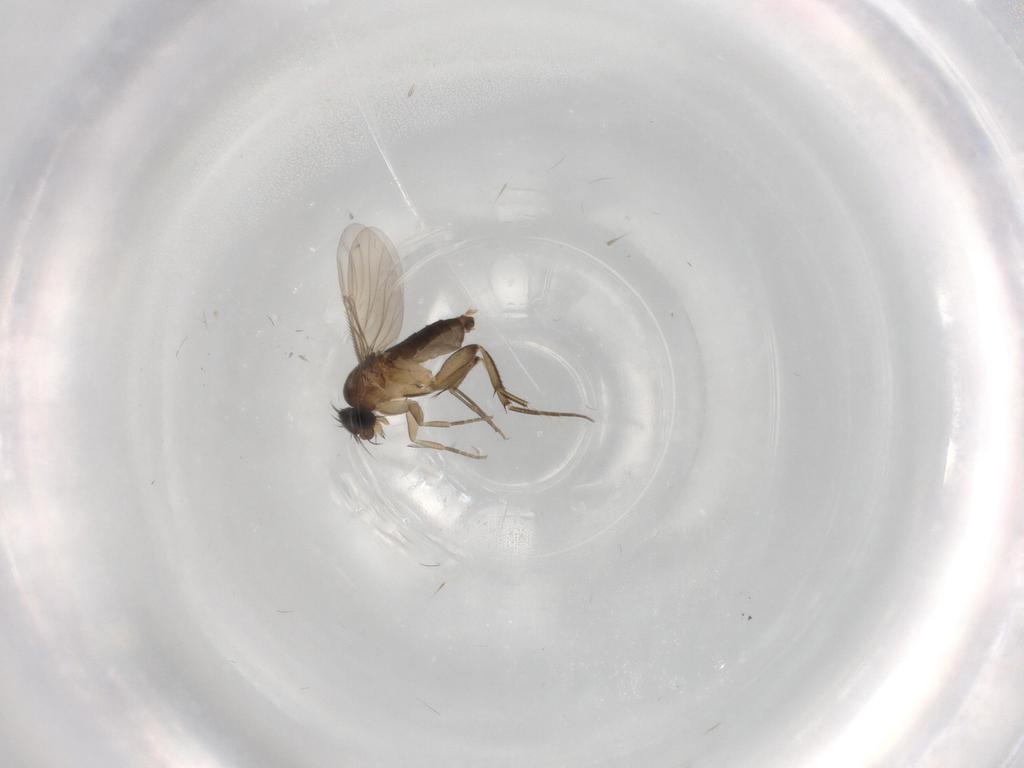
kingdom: Animalia
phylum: Arthropoda
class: Insecta
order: Diptera
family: Phoridae
